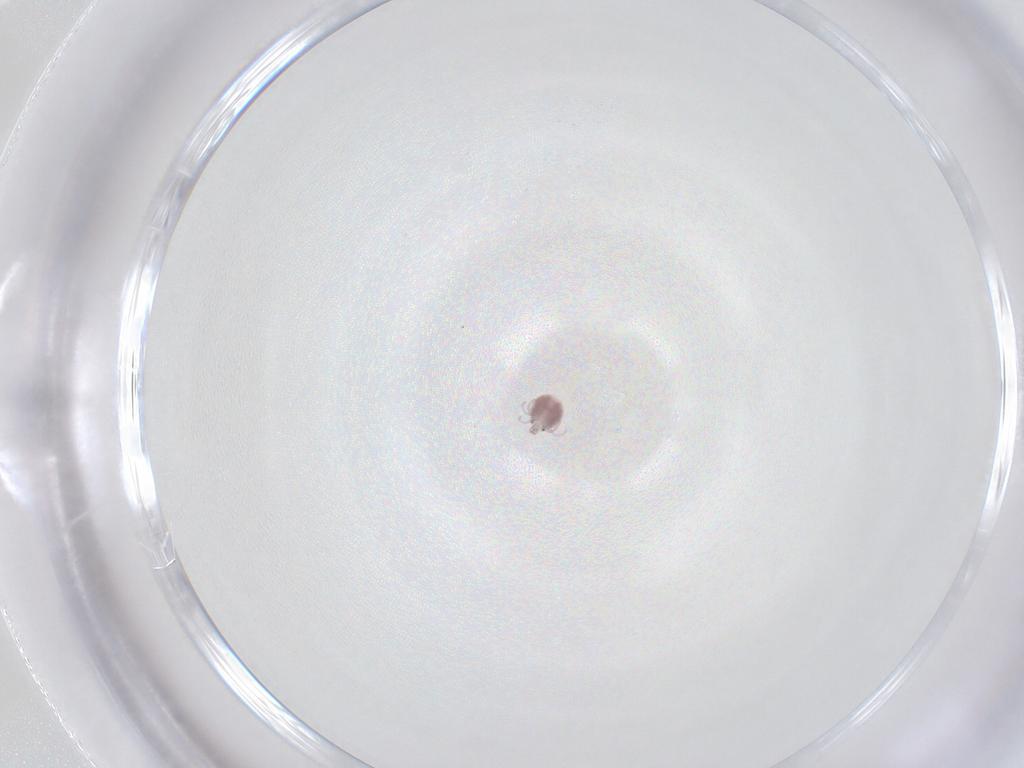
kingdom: Animalia
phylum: Arthropoda
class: Arachnida
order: Trombidiformes
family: Pionidae
